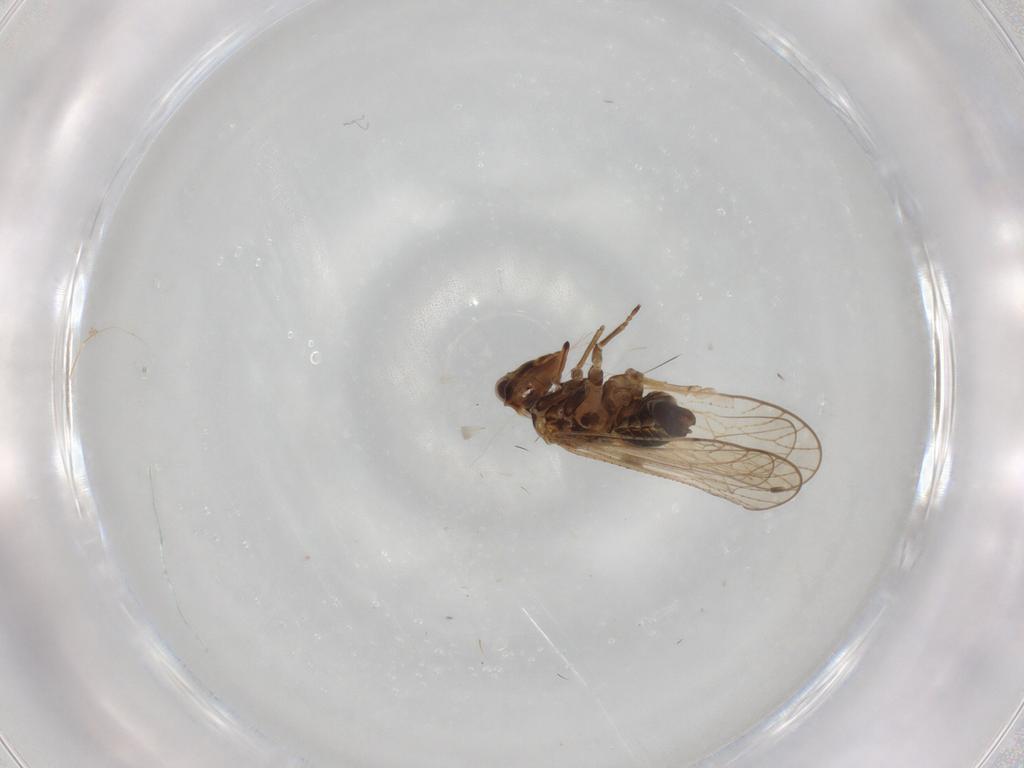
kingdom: Animalia
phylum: Arthropoda
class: Insecta
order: Hemiptera
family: Delphacidae
